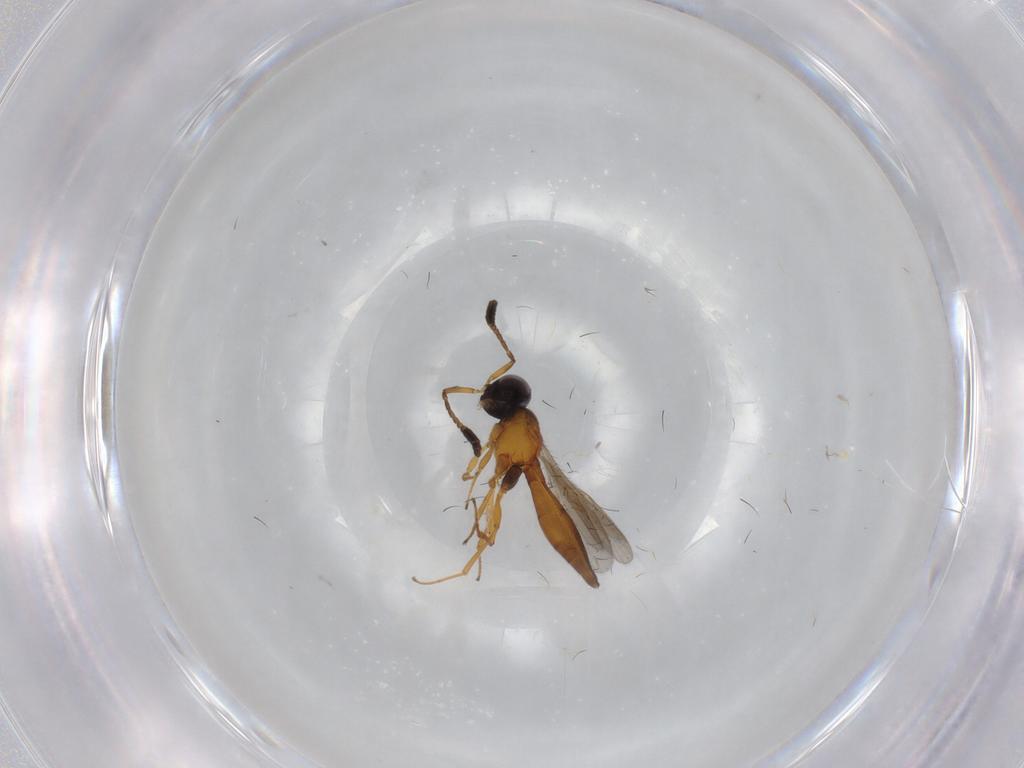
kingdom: Animalia
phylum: Arthropoda
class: Insecta
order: Hymenoptera
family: Scelionidae
